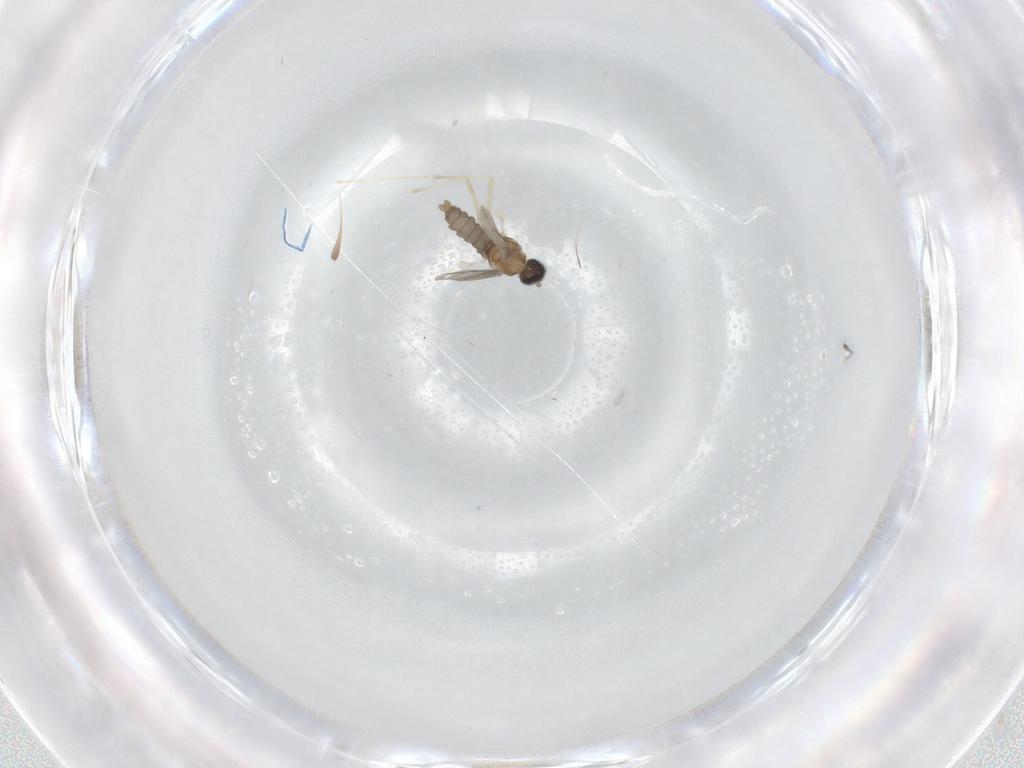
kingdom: Animalia
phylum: Arthropoda
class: Insecta
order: Diptera
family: Cecidomyiidae
